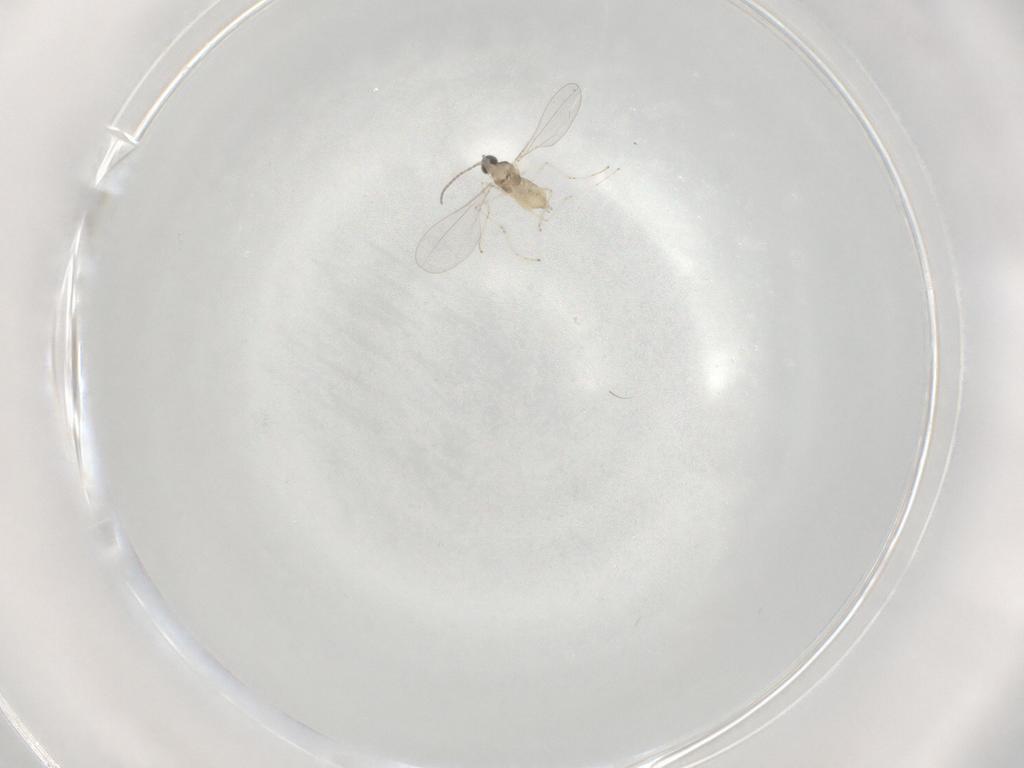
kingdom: Animalia
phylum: Arthropoda
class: Insecta
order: Diptera
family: Cecidomyiidae
